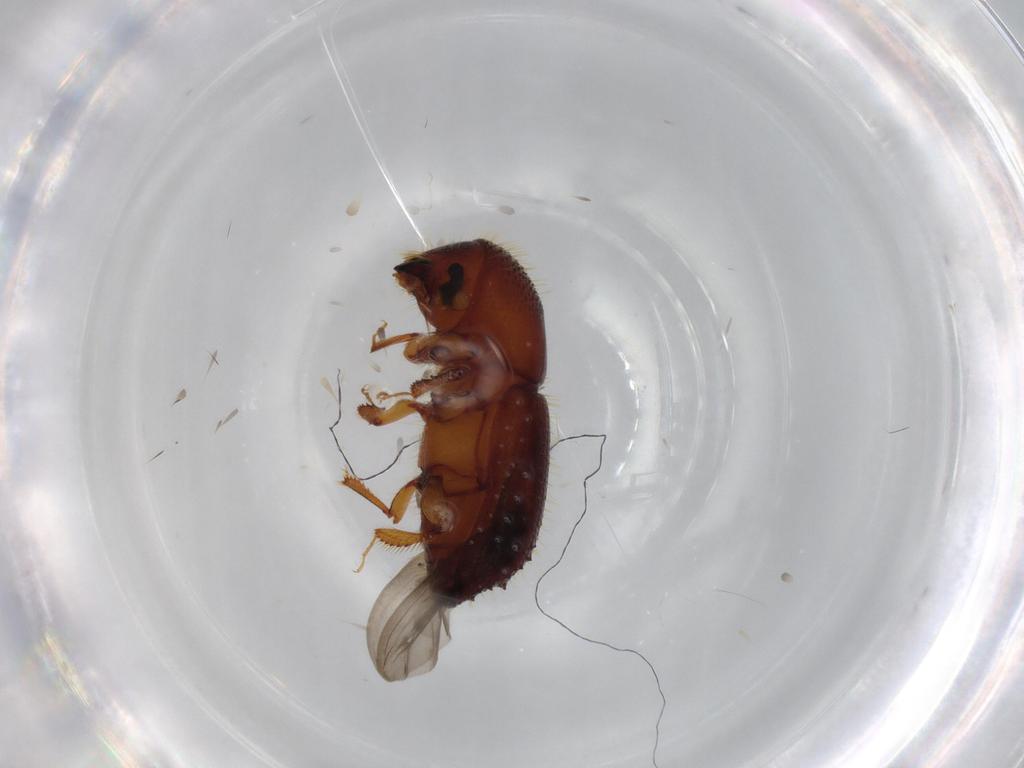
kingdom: Animalia
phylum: Arthropoda
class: Insecta
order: Coleoptera
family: Curculionidae
